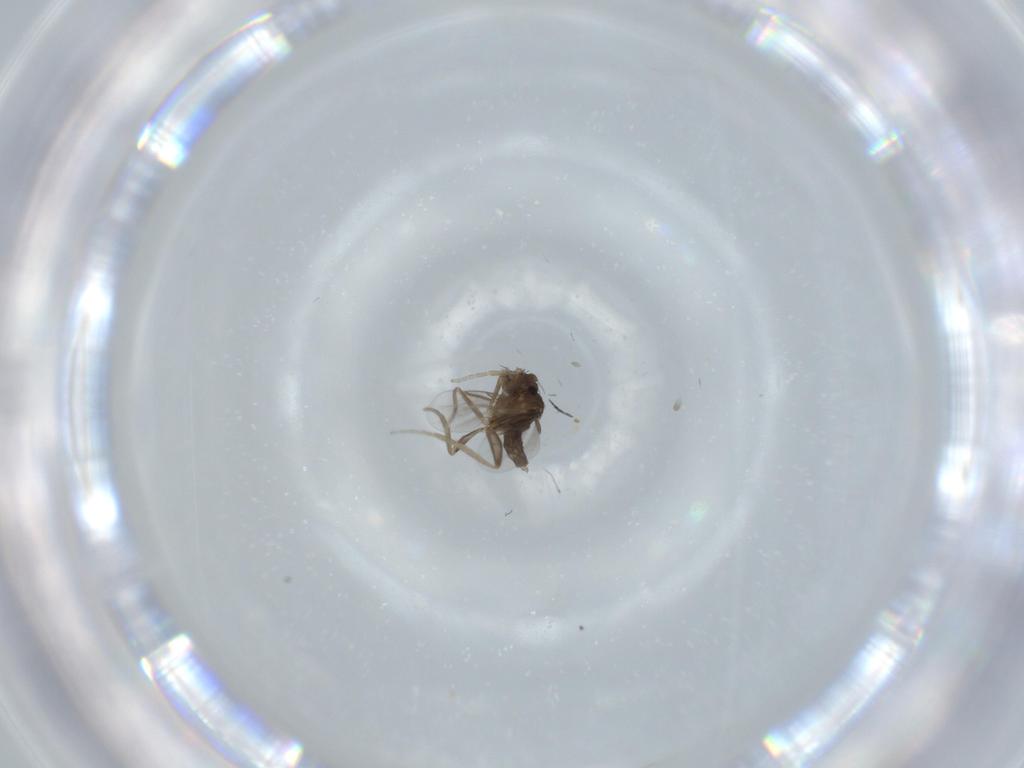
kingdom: Animalia
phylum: Arthropoda
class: Insecta
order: Diptera
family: Phoridae
